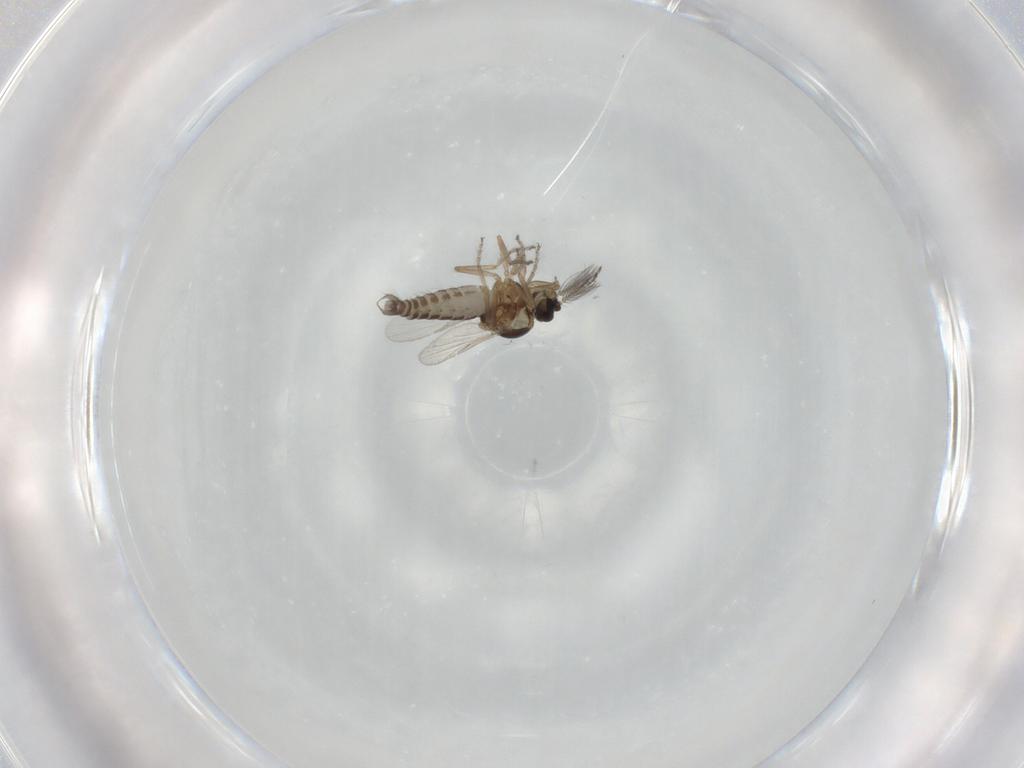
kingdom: Animalia
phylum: Arthropoda
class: Insecta
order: Diptera
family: Ceratopogonidae
